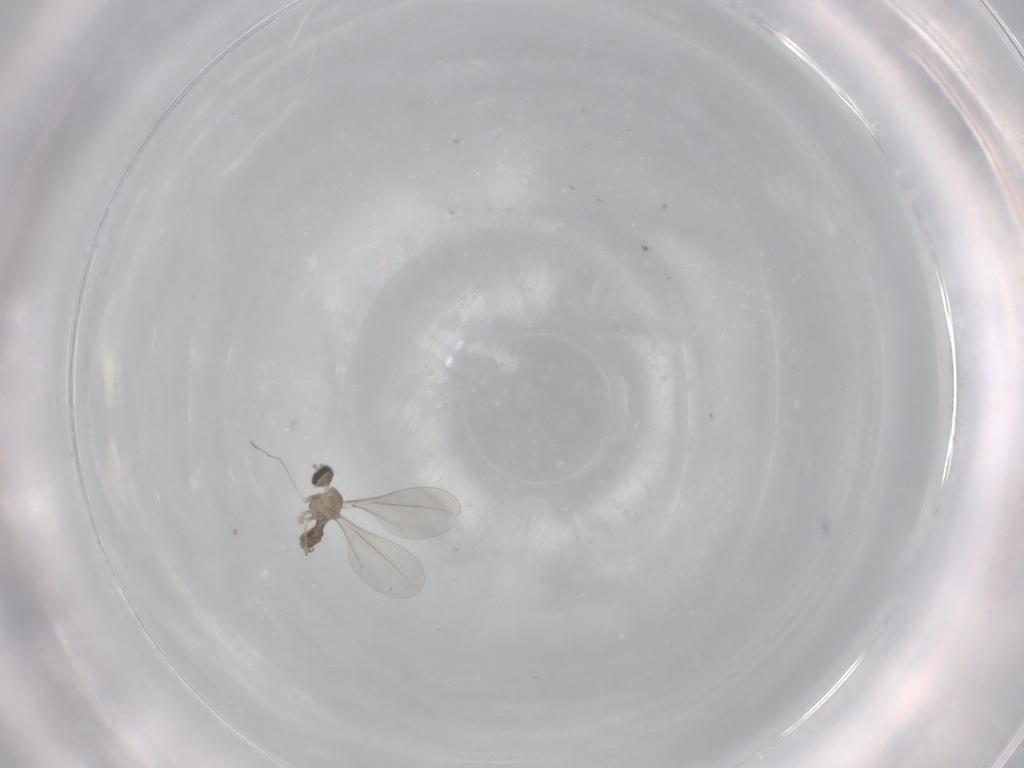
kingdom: Animalia
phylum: Arthropoda
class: Insecta
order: Diptera
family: Cecidomyiidae
